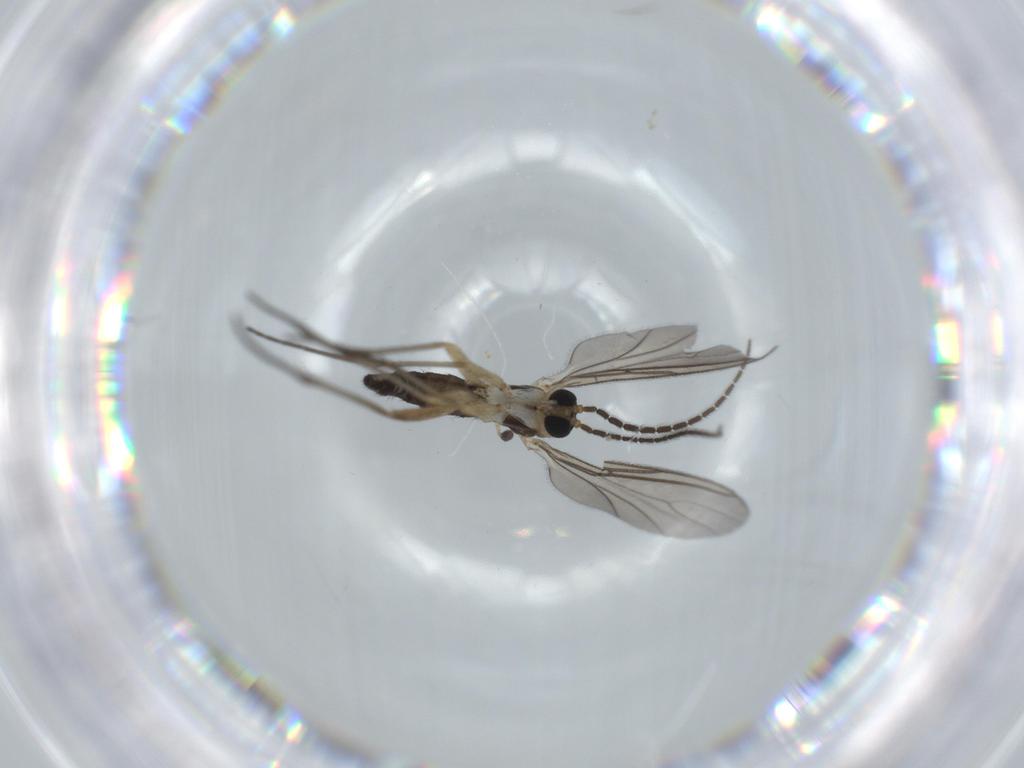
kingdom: Animalia
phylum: Arthropoda
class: Insecta
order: Diptera
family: Sciaridae
